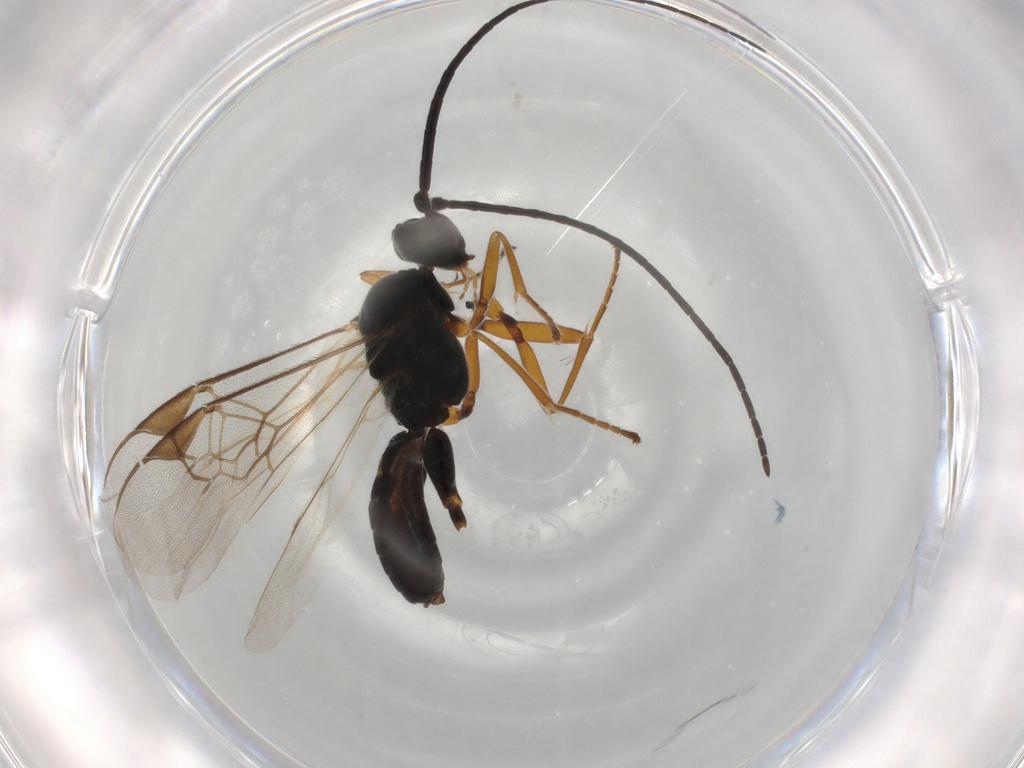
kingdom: Animalia
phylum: Arthropoda
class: Insecta
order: Hymenoptera
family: Braconidae
